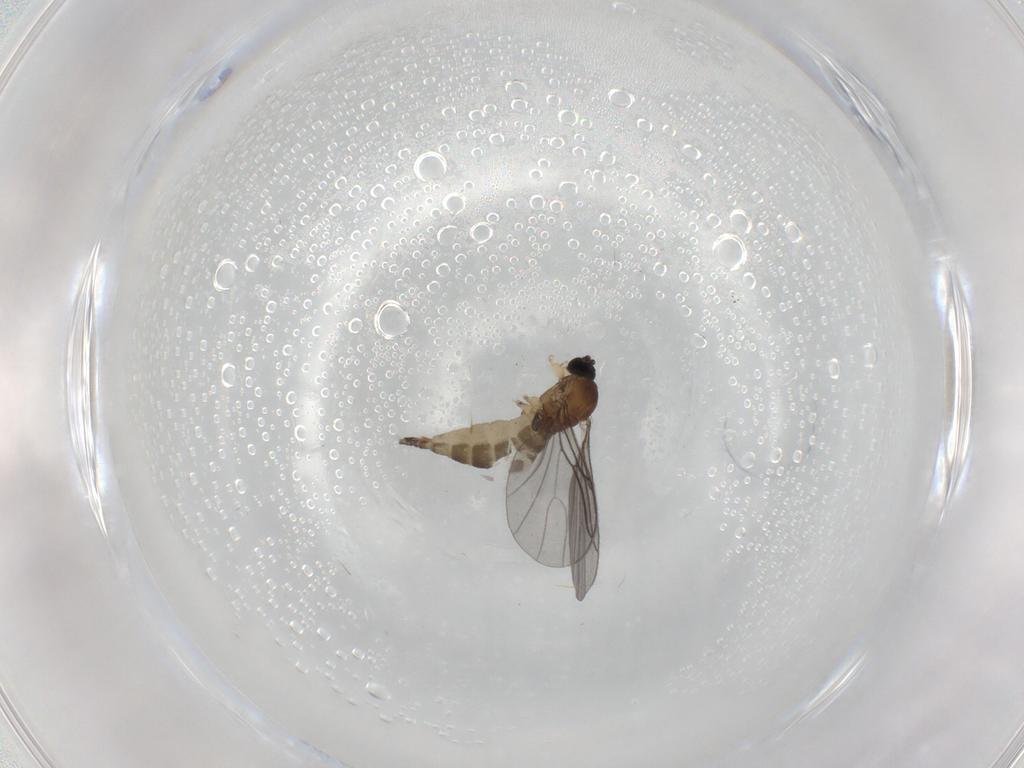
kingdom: Animalia
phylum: Arthropoda
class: Insecta
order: Diptera
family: Sciaridae
